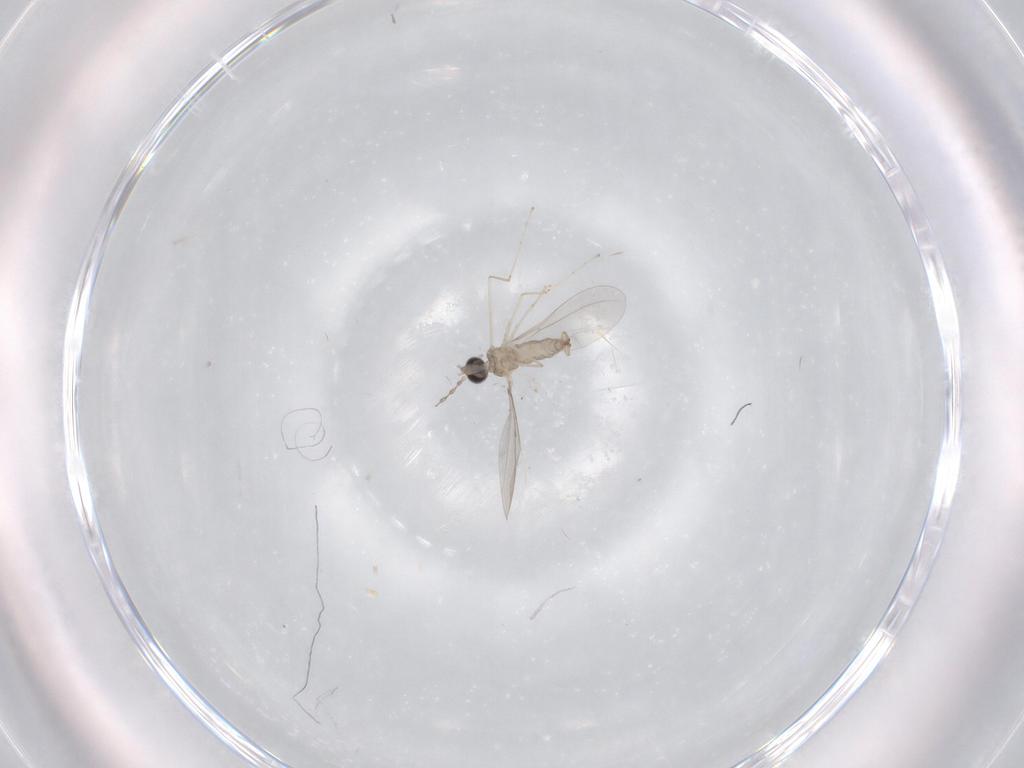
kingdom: Animalia
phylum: Arthropoda
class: Insecta
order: Diptera
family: Cecidomyiidae
